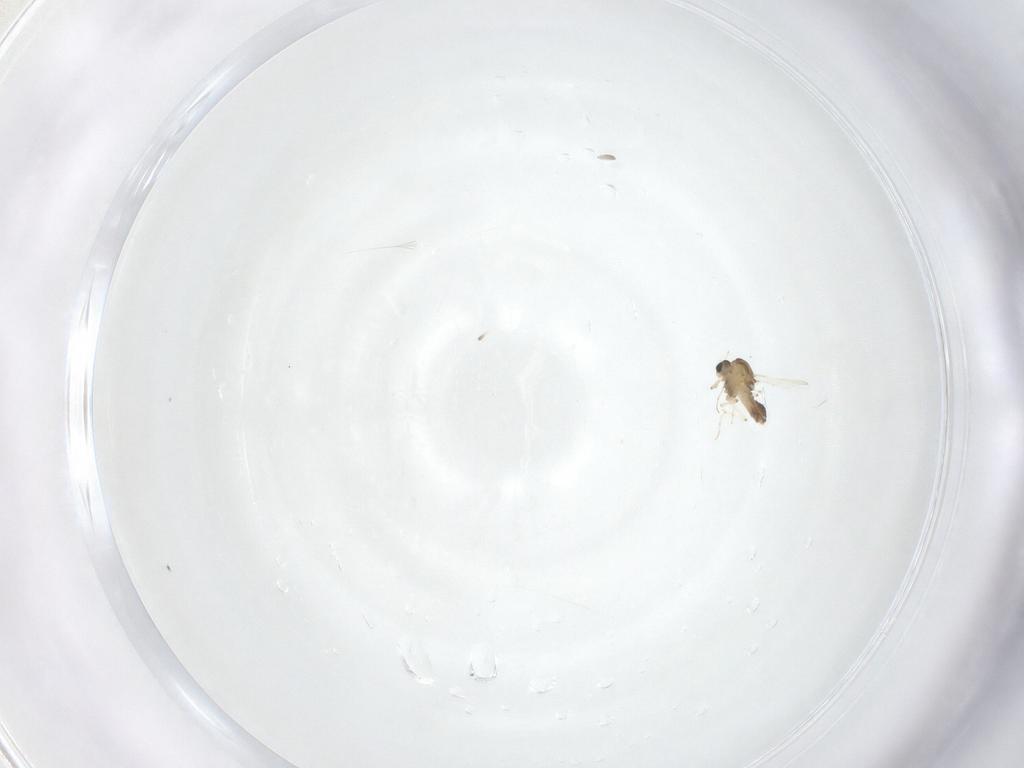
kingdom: Animalia
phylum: Arthropoda
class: Insecta
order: Diptera
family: Chironomidae
